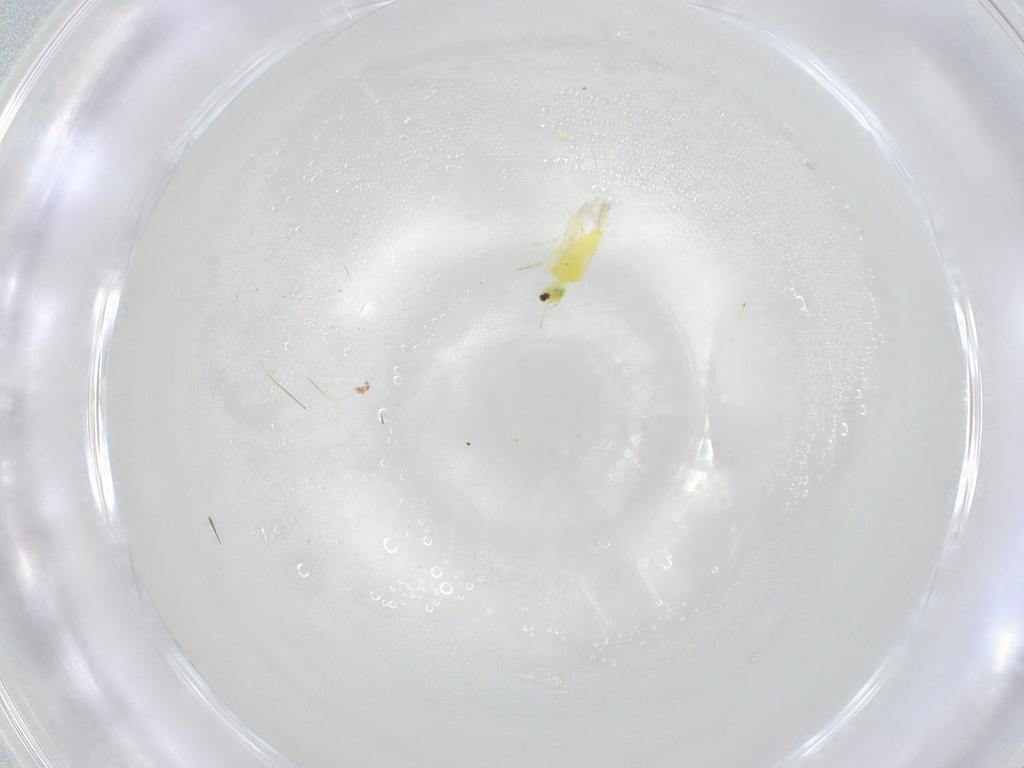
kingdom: Animalia
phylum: Arthropoda
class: Insecta
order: Hemiptera
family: Aleyrodidae
